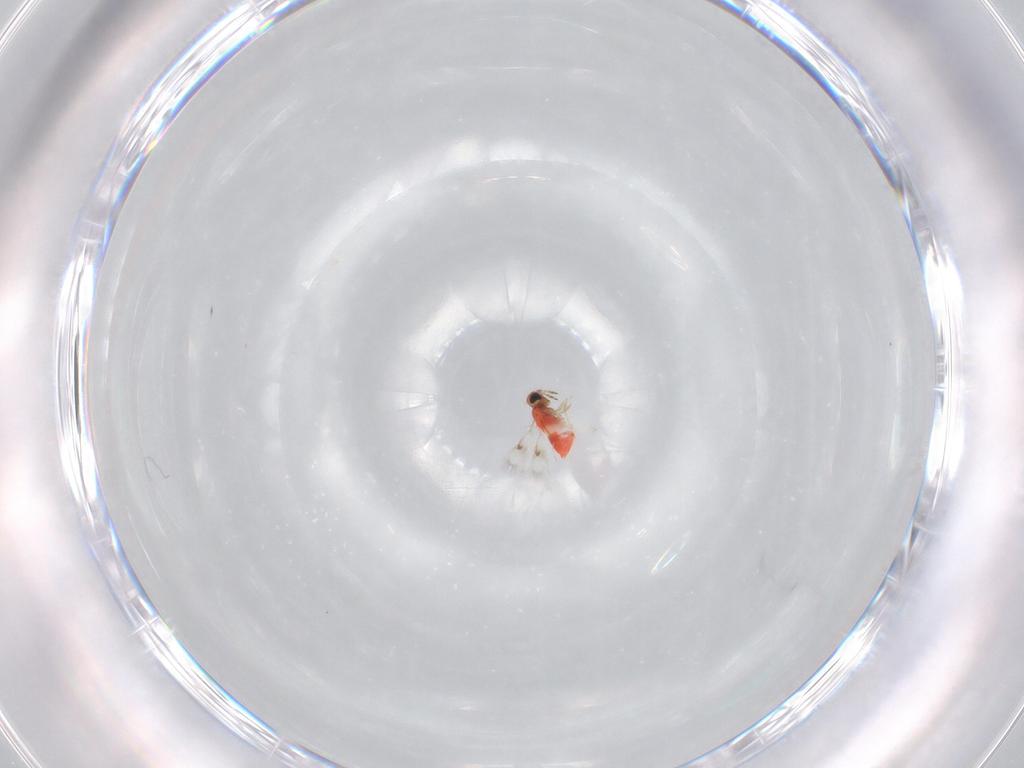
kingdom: Animalia
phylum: Arthropoda
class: Insecta
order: Hymenoptera
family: Trichogrammatidae
